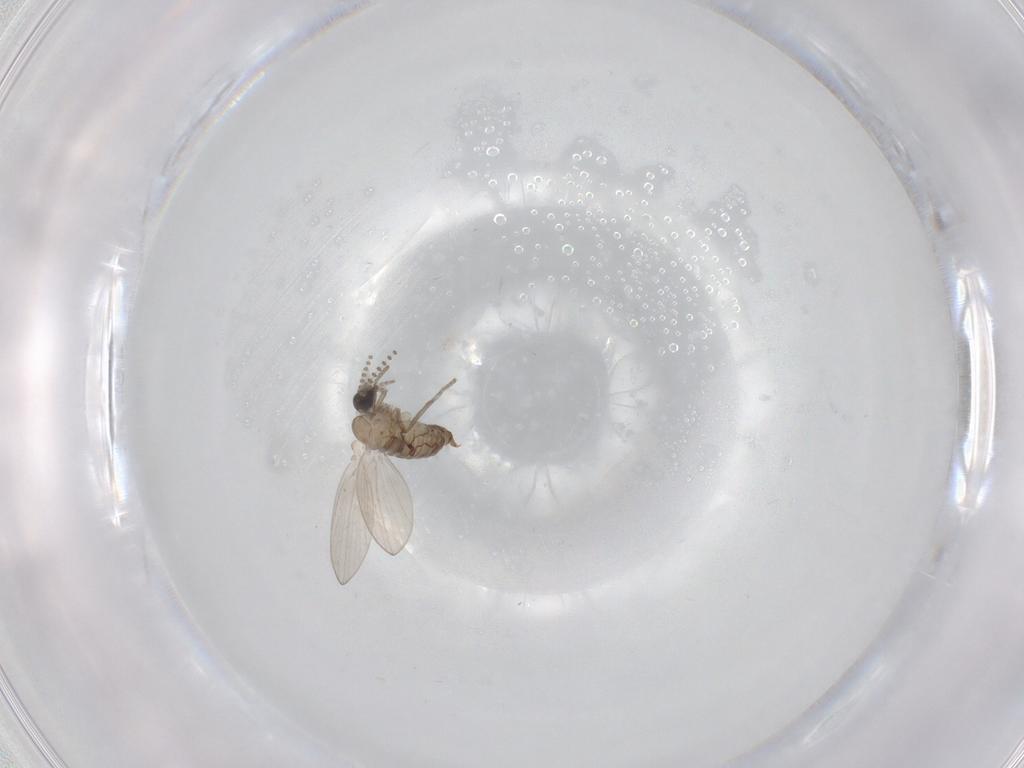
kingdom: Animalia
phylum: Arthropoda
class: Insecta
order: Diptera
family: Psychodidae
